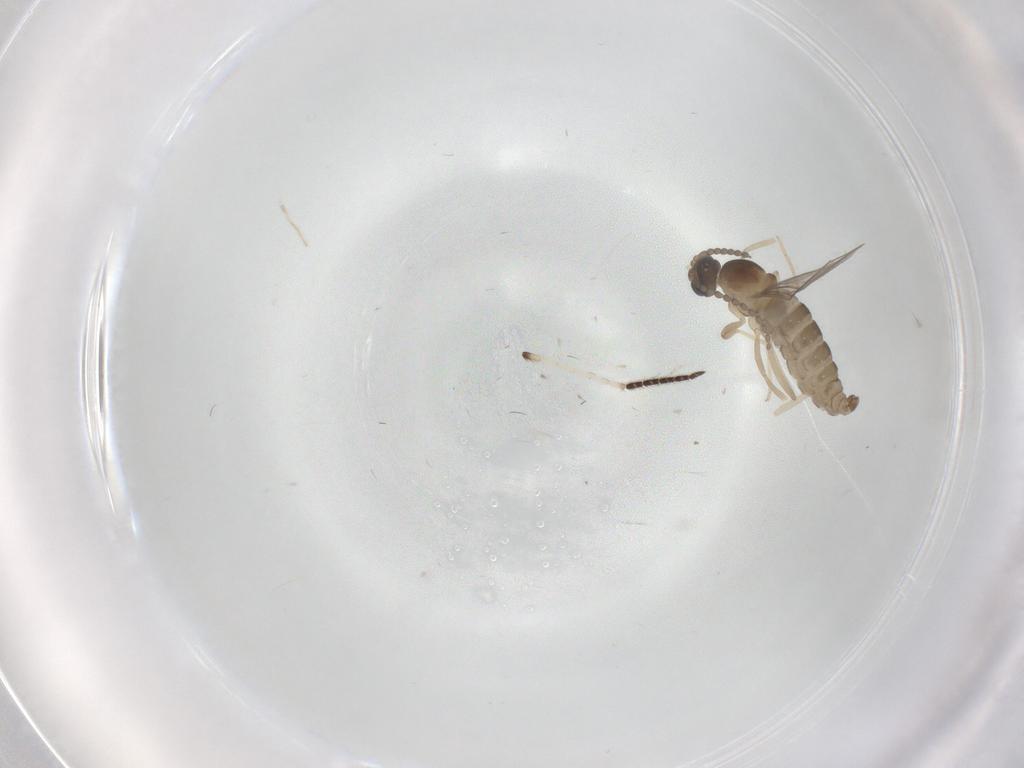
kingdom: Animalia
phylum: Arthropoda
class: Insecta
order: Diptera
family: Cecidomyiidae
